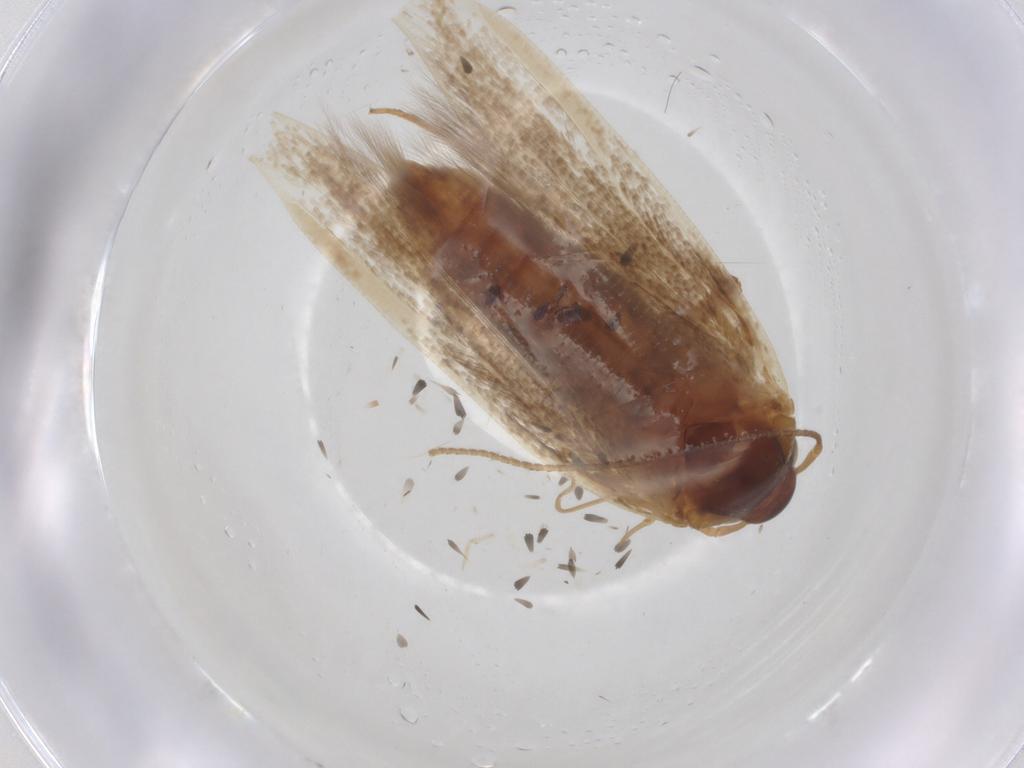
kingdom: Animalia
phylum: Arthropoda
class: Insecta
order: Lepidoptera
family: Blastobasidae
